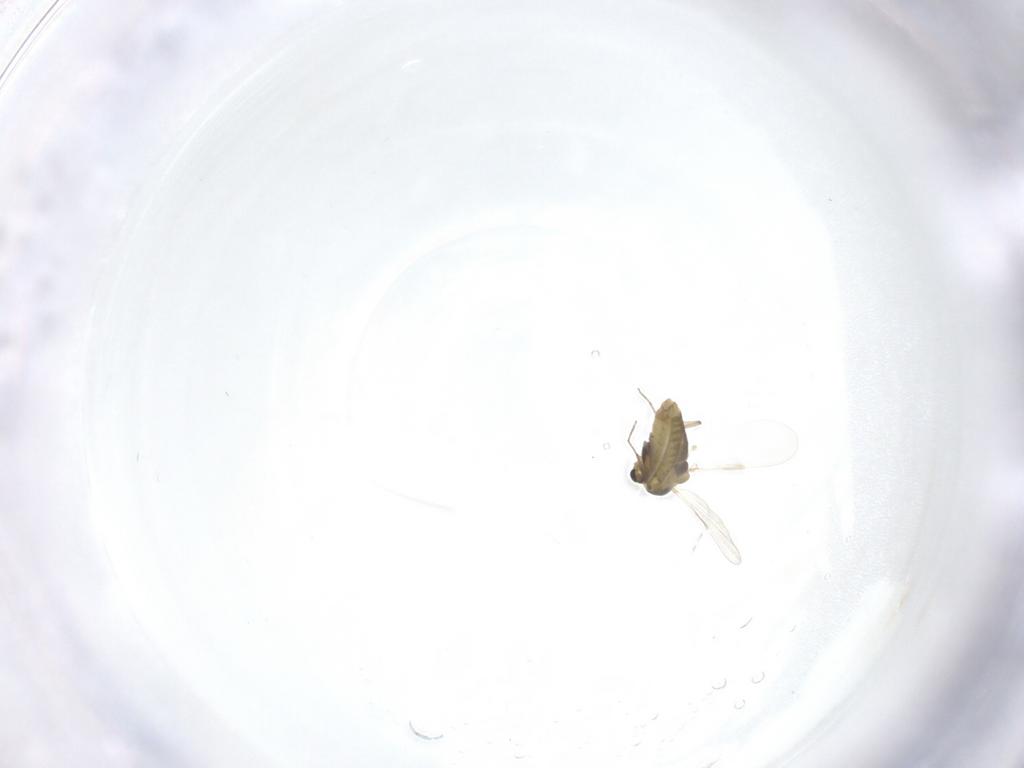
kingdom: Animalia
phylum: Arthropoda
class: Insecta
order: Diptera
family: Chironomidae
